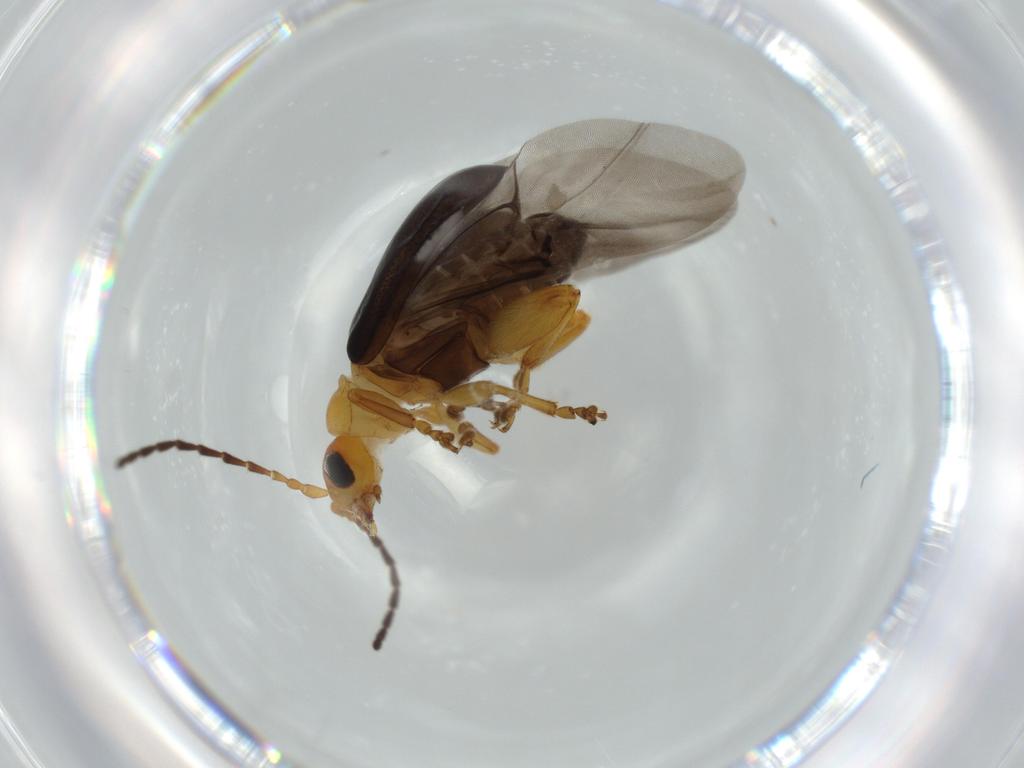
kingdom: Animalia
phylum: Arthropoda
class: Insecta
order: Coleoptera
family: Chrysomelidae
